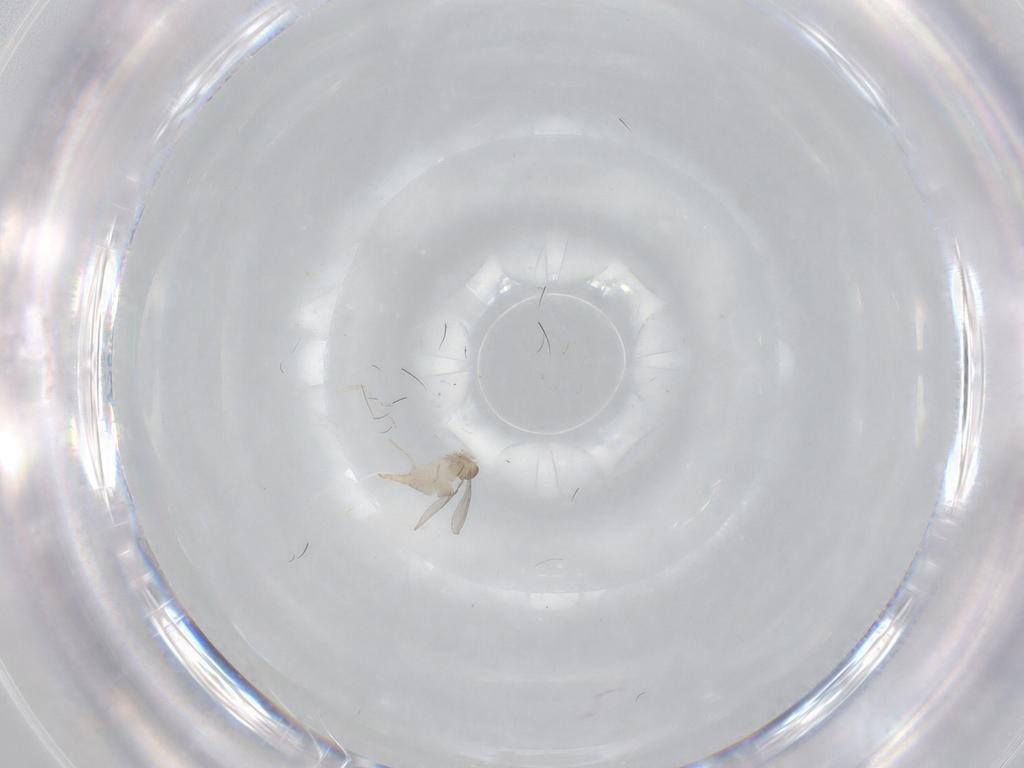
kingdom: Animalia
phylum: Arthropoda
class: Insecta
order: Diptera
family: Cecidomyiidae
